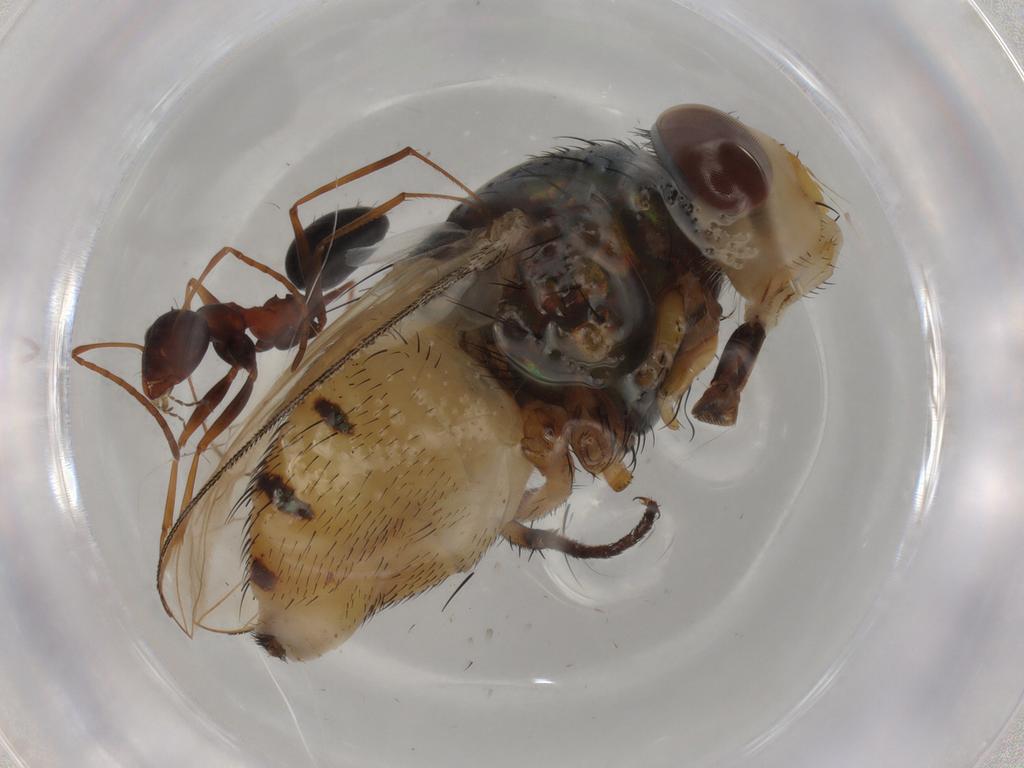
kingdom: Animalia
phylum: Arthropoda
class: Insecta
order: Diptera
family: Calliphoridae
